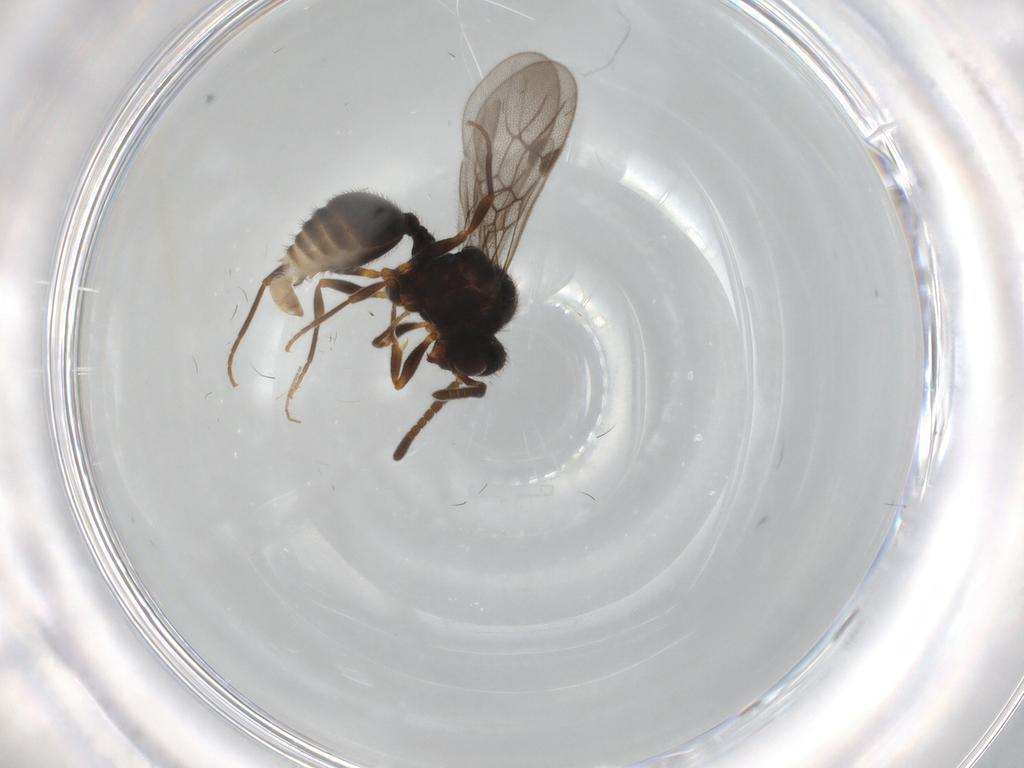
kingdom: Animalia
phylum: Arthropoda
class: Insecta
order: Hymenoptera
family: Formicidae
